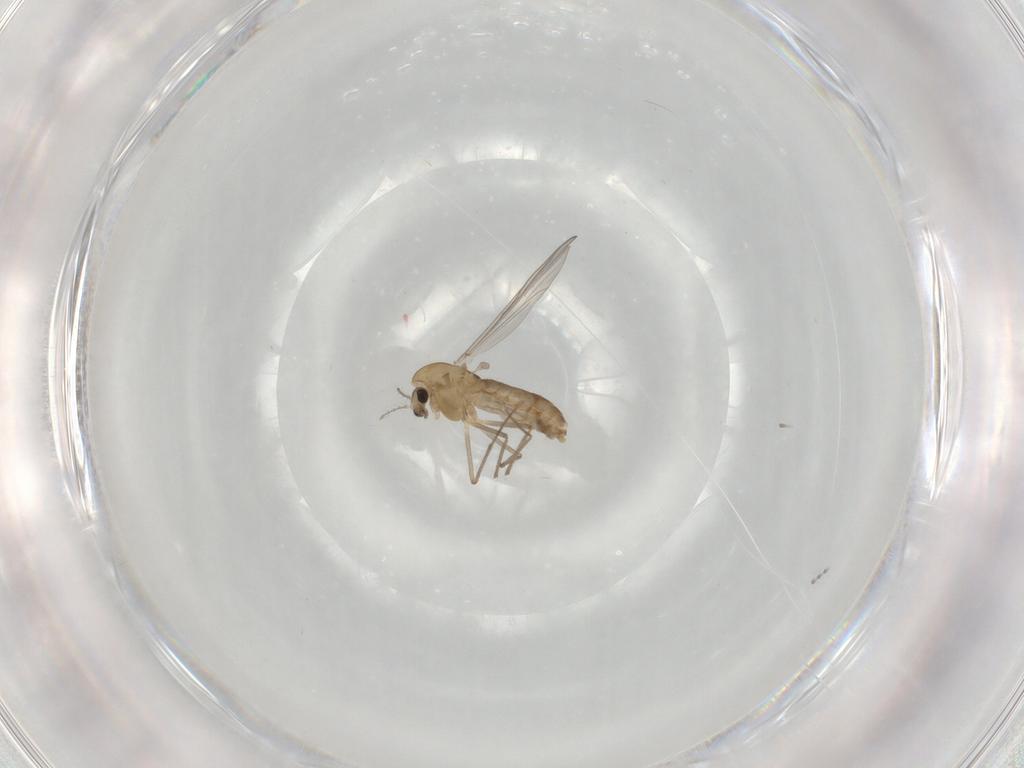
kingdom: Animalia
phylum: Arthropoda
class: Insecta
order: Diptera
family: Chironomidae
